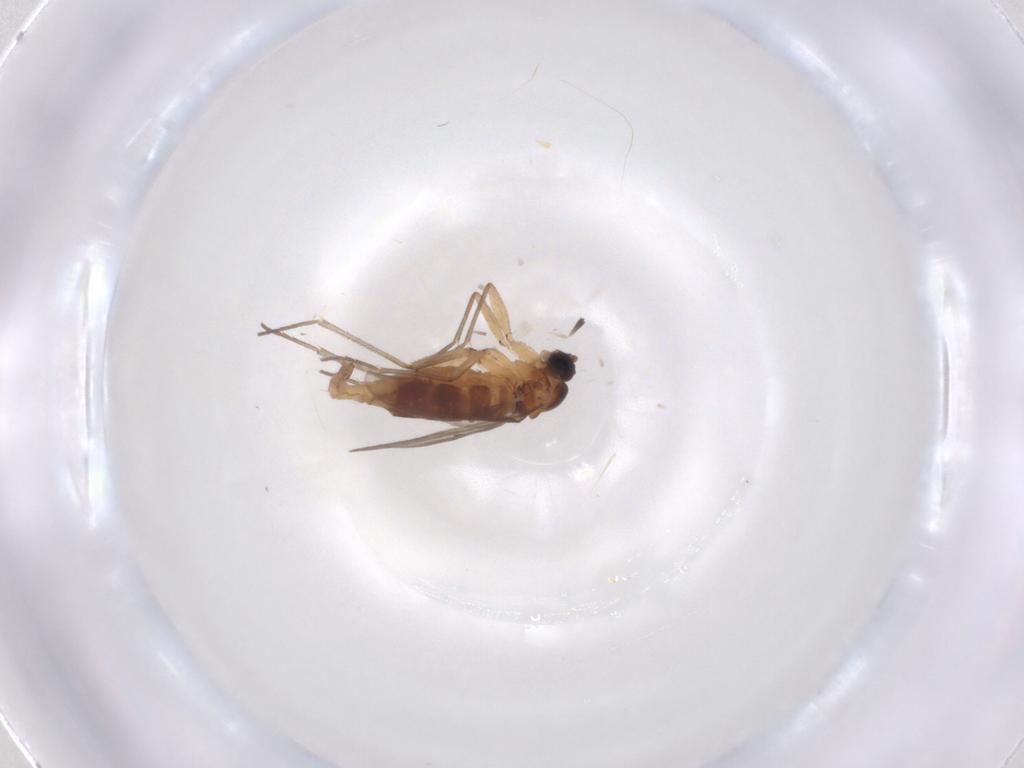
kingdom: Animalia
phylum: Arthropoda
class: Insecta
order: Diptera
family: Sciaridae
